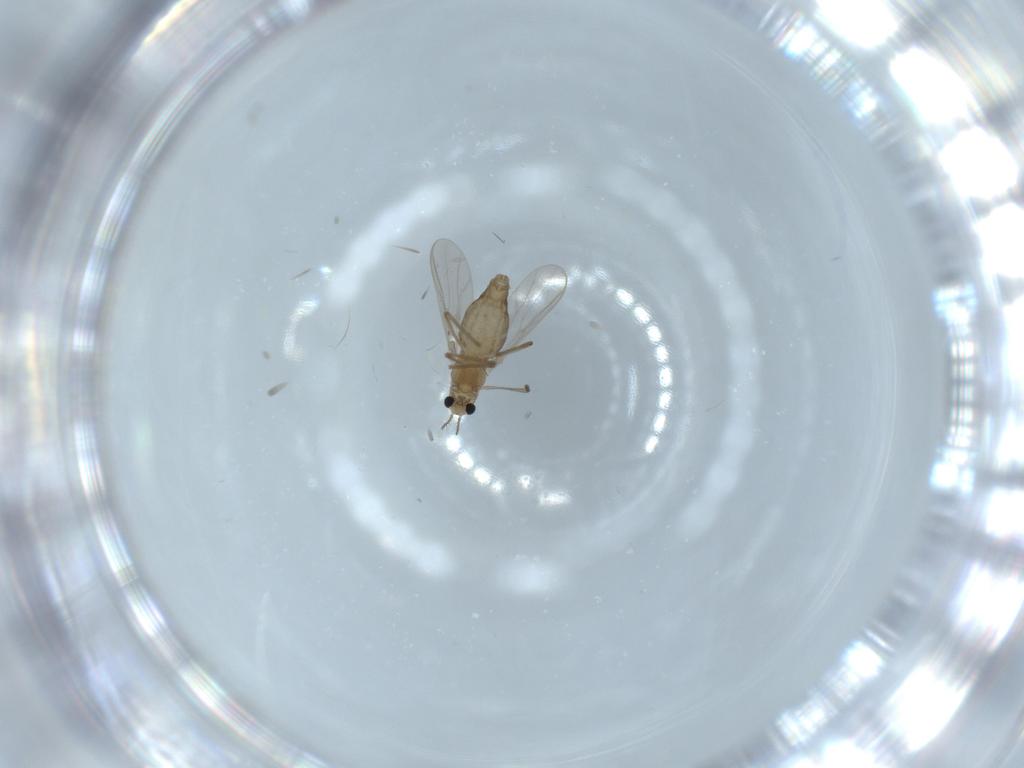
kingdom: Animalia
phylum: Arthropoda
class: Insecta
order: Diptera
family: Chironomidae
